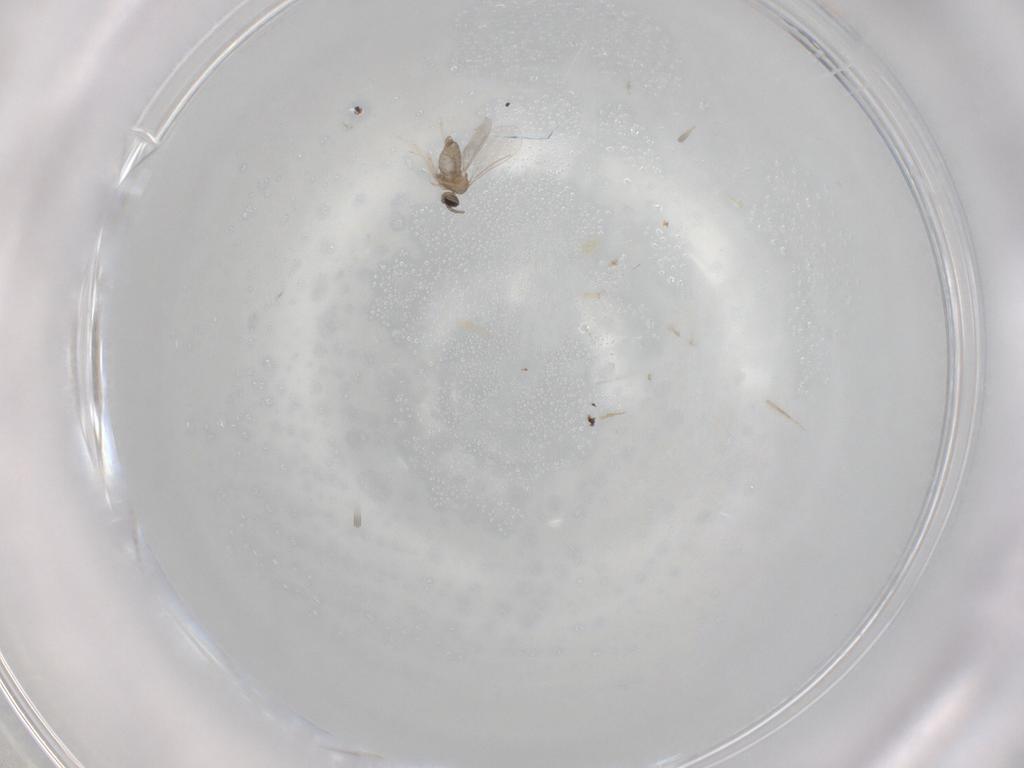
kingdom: Animalia
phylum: Arthropoda
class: Insecta
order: Diptera
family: Cecidomyiidae
